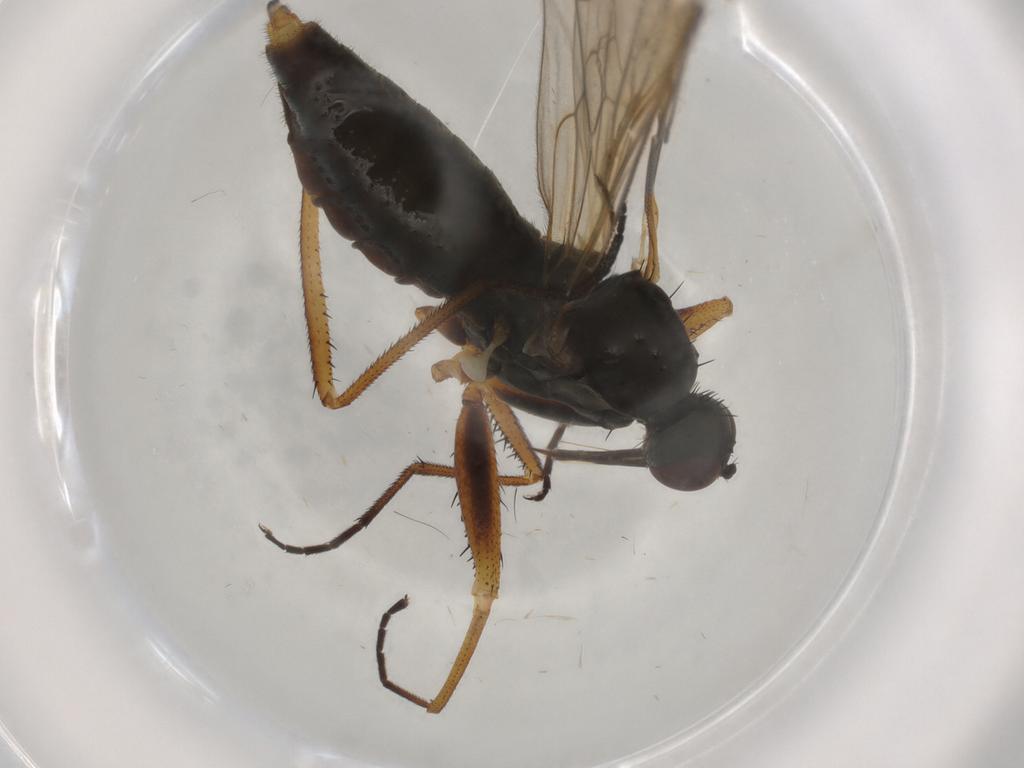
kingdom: Animalia
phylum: Arthropoda
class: Insecta
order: Diptera
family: Empididae
